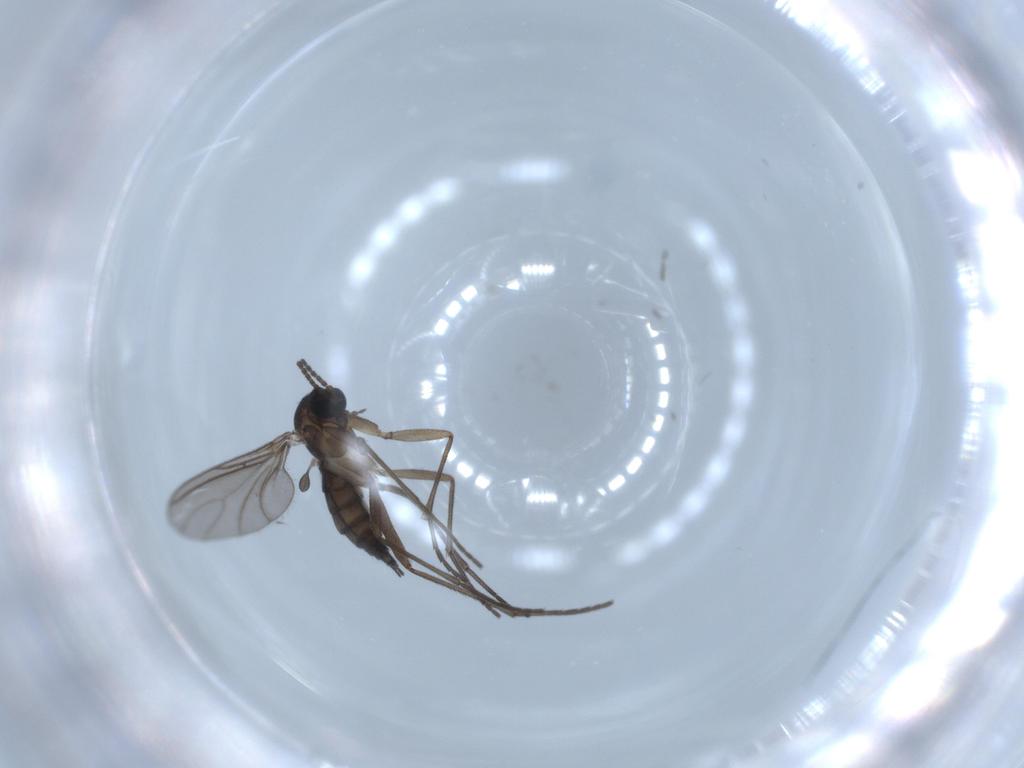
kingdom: Animalia
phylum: Arthropoda
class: Insecta
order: Diptera
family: Sciaridae
